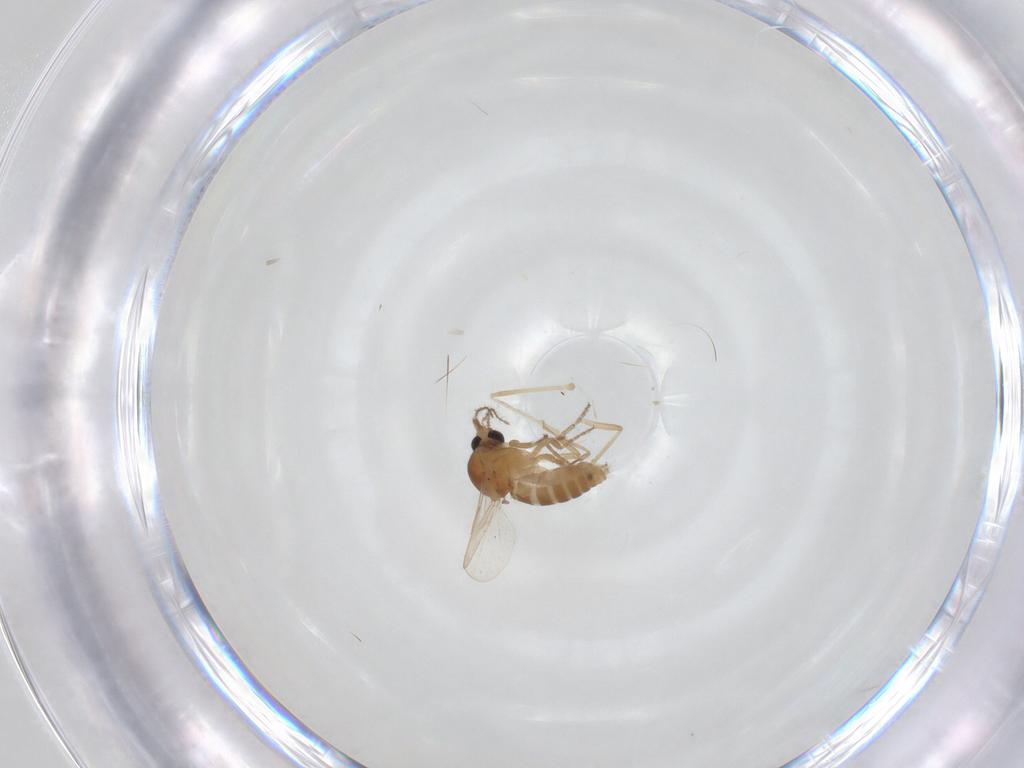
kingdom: Animalia
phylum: Arthropoda
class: Insecta
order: Diptera
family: Ceratopogonidae
